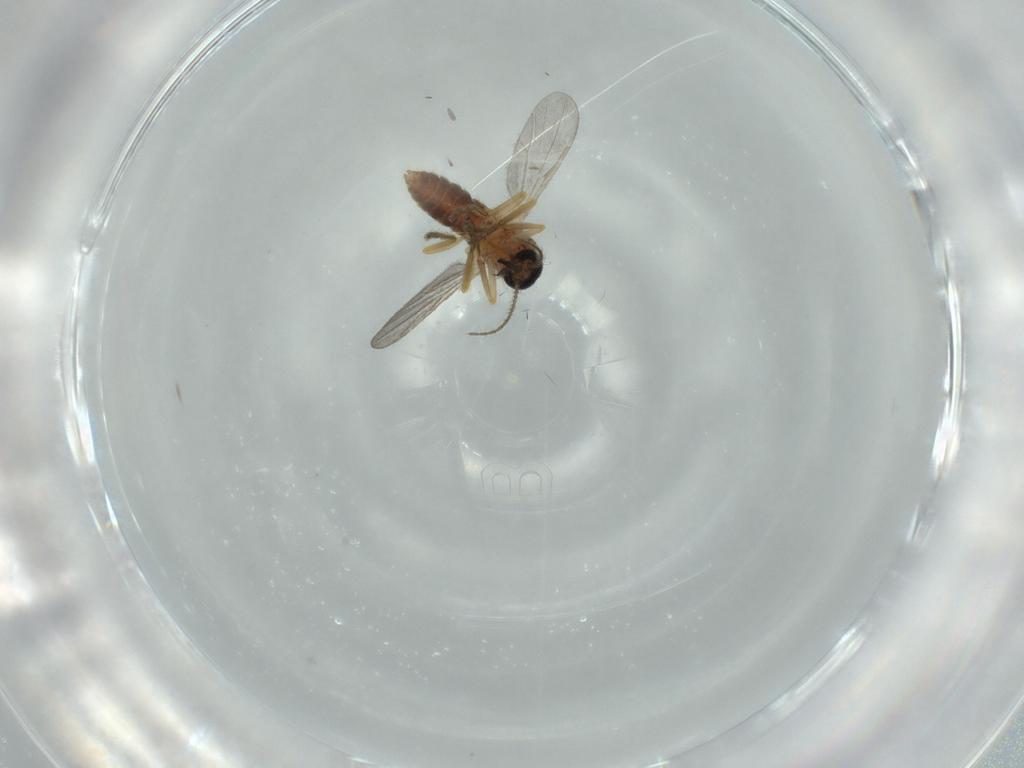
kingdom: Animalia
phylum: Arthropoda
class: Insecta
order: Diptera
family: Ceratopogonidae
